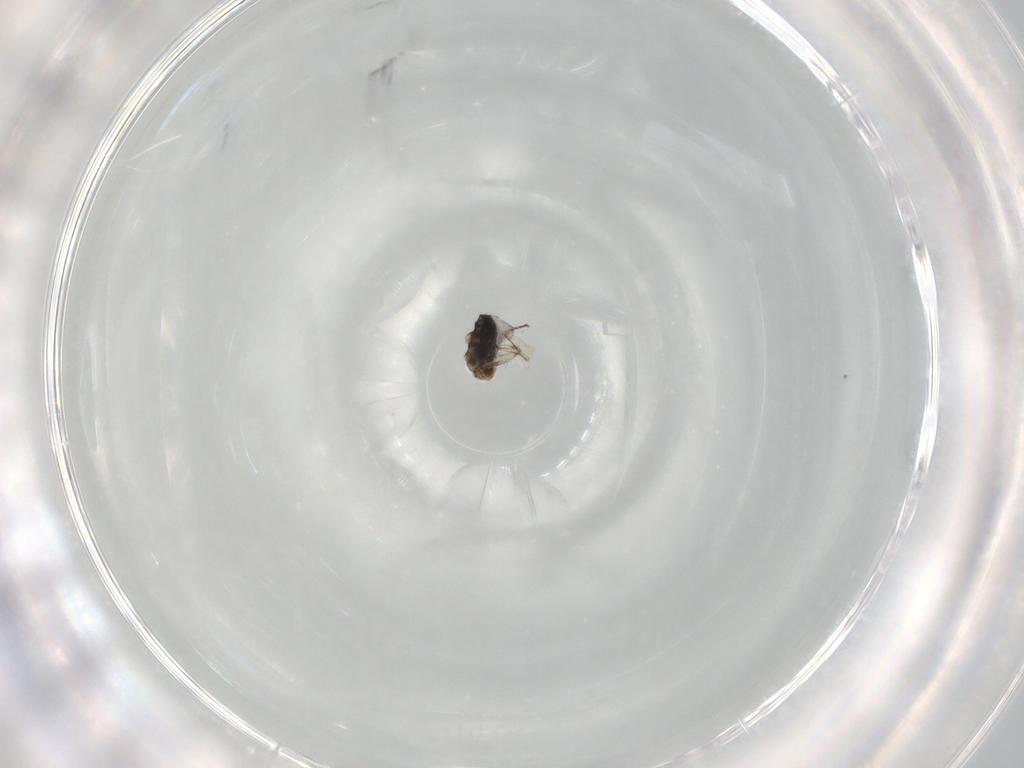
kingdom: Animalia
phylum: Arthropoda
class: Insecta
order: Hymenoptera
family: Mymaridae
